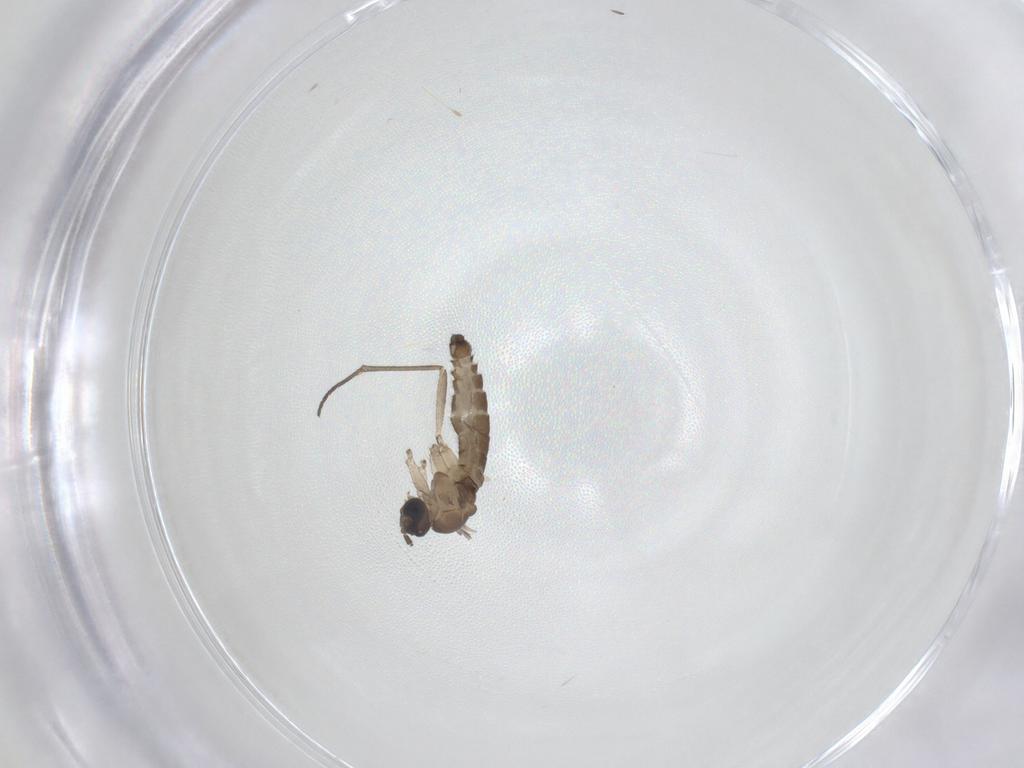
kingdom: Animalia
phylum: Arthropoda
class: Insecta
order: Diptera
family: Sciaridae
